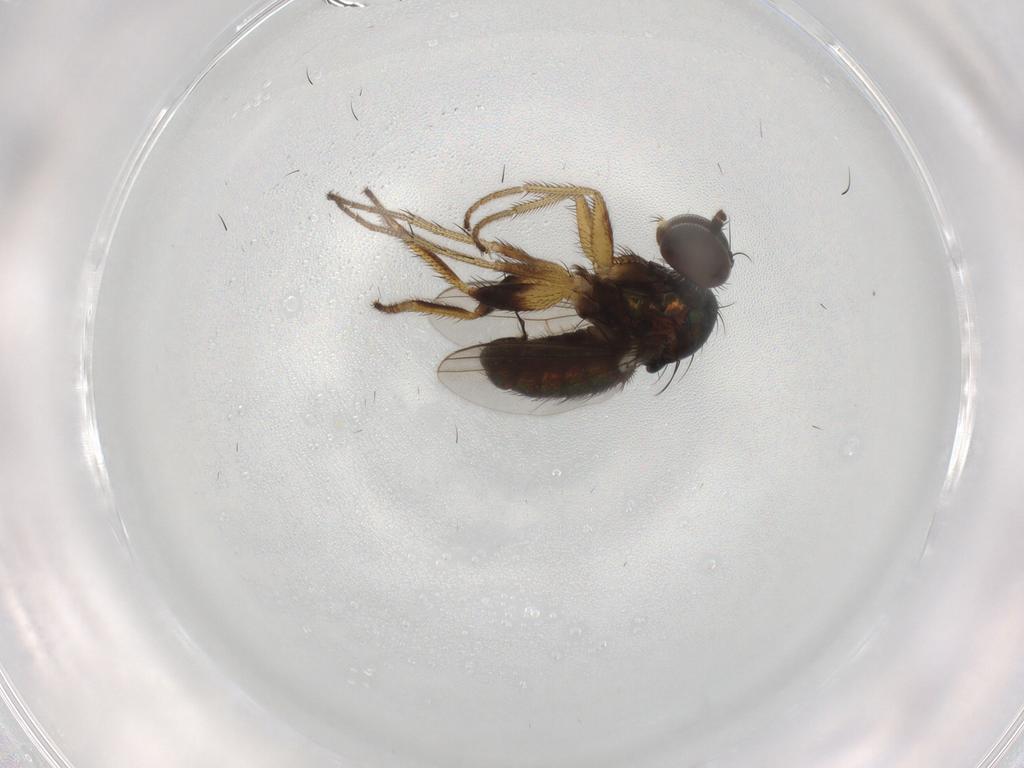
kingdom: Animalia
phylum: Arthropoda
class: Insecta
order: Diptera
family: Dolichopodidae
